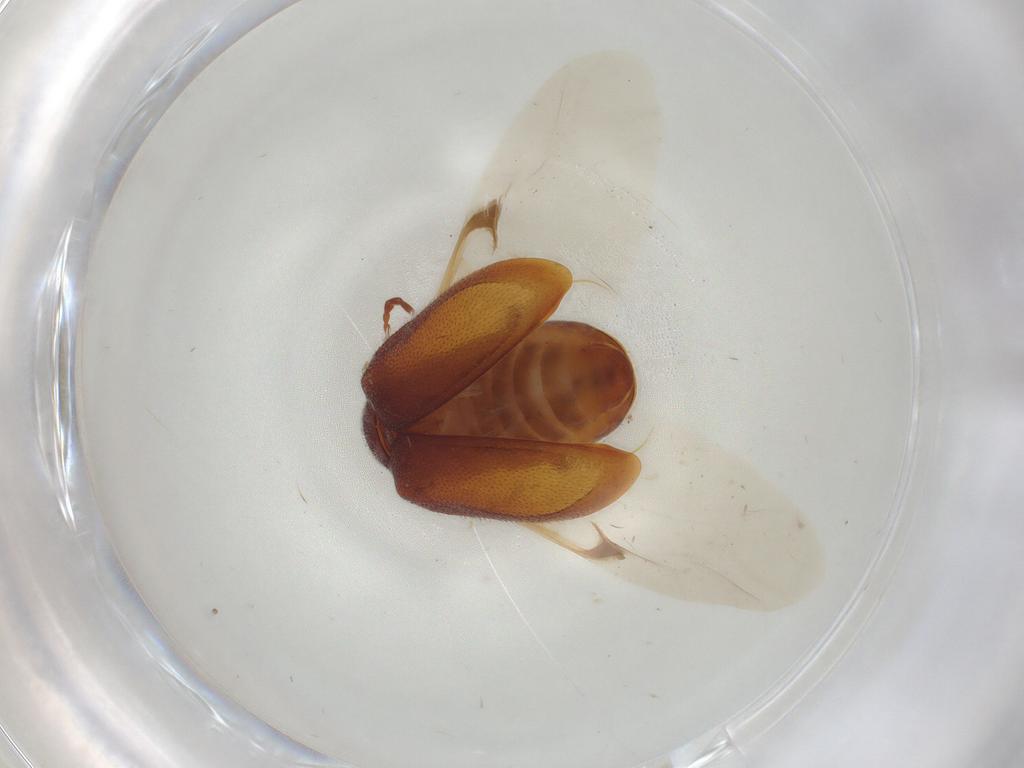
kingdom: Animalia
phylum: Arthropoda
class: Insecta
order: Coleoptera
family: Ptinidae
